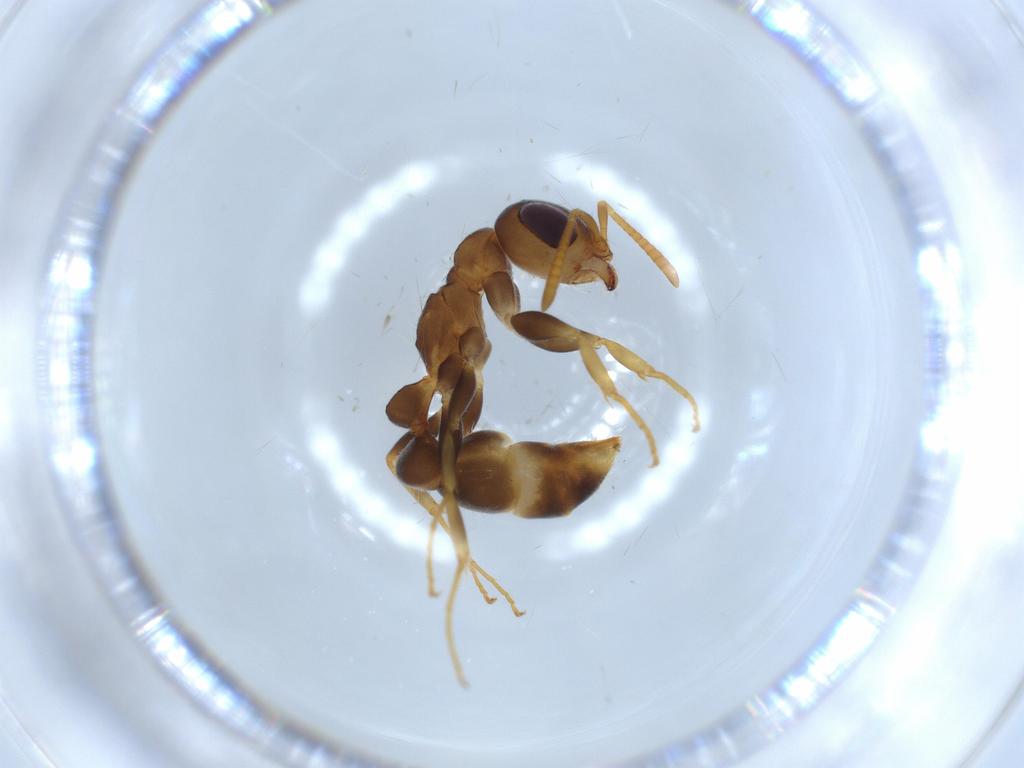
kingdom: Animalia
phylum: Arthropoda
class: Insecta
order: Hymenoptera
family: Formicidae
